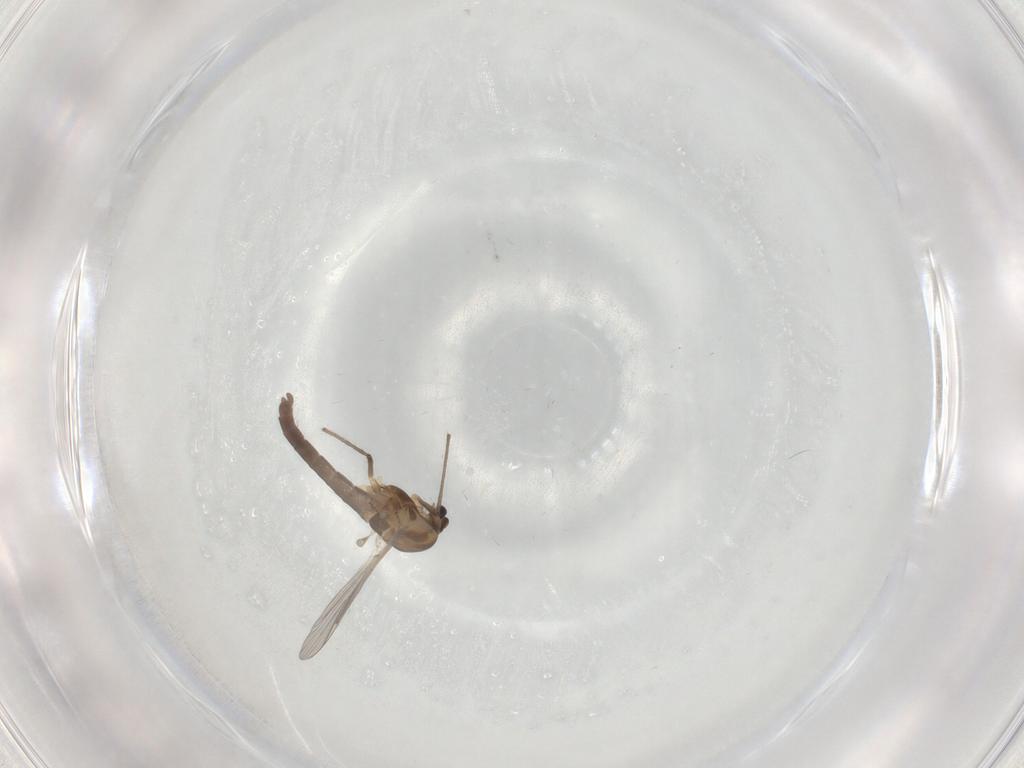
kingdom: Animalia
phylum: Arthropoda
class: Insecta
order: Diptera
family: Chironomidae
